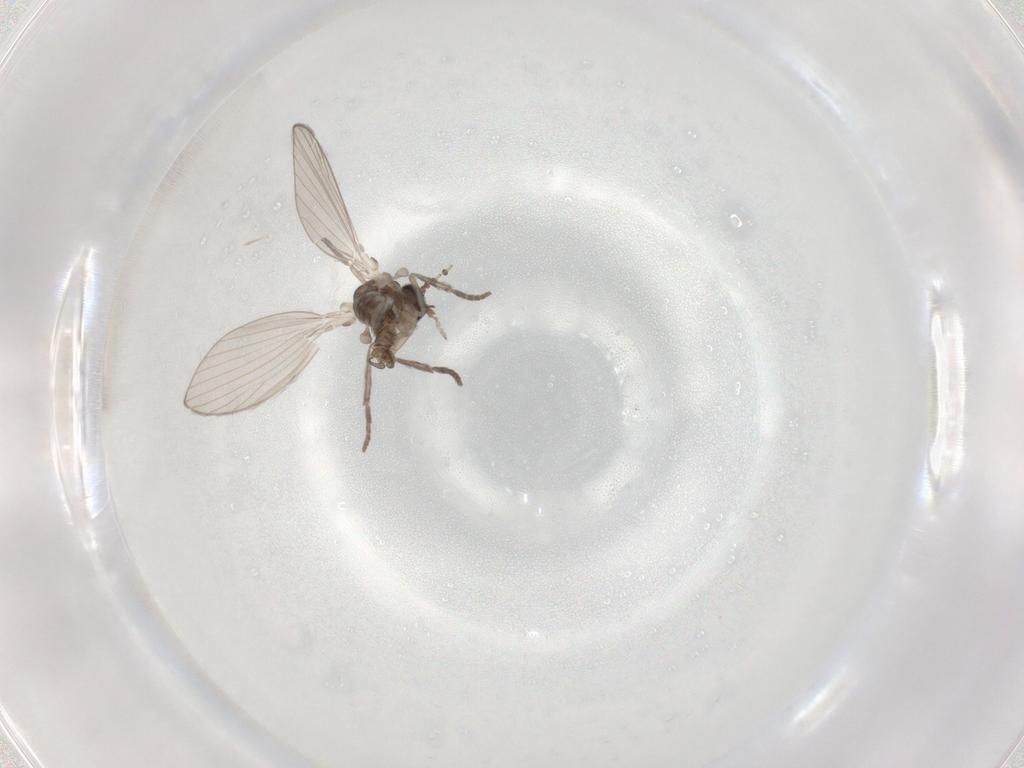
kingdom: Animalia
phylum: Arthropoda
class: Insecta
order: Diptera
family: Psychodidae
